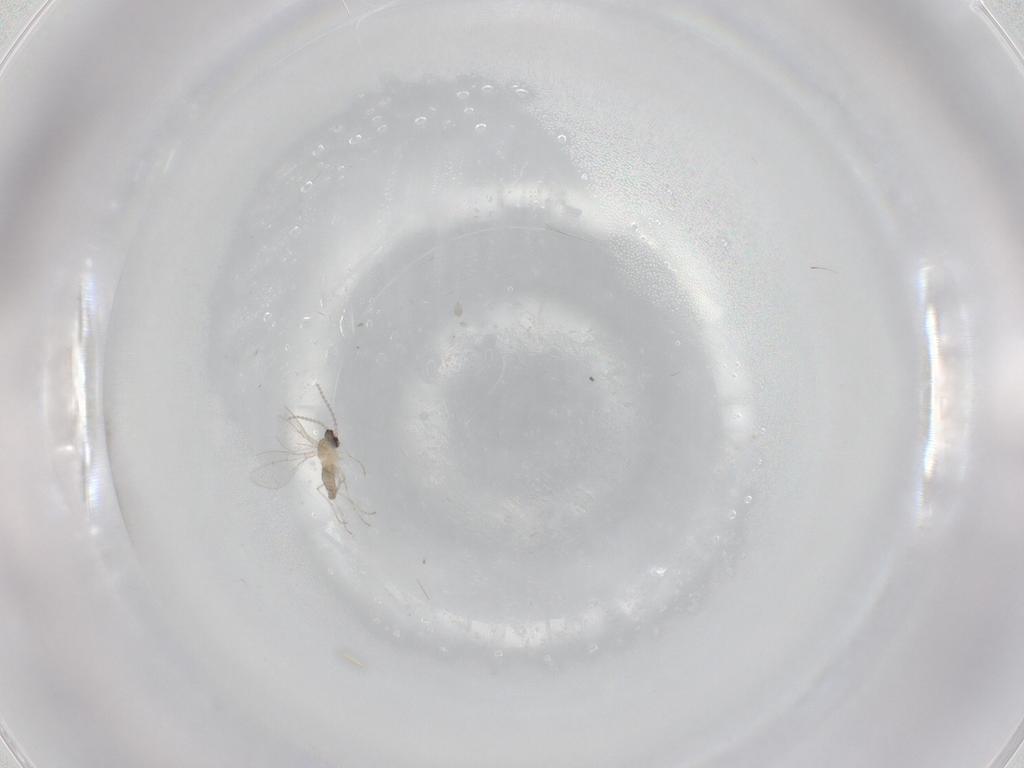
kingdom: Animalia
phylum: Arthropoda
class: Insecta
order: Diptera
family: Cecidomyiidae
